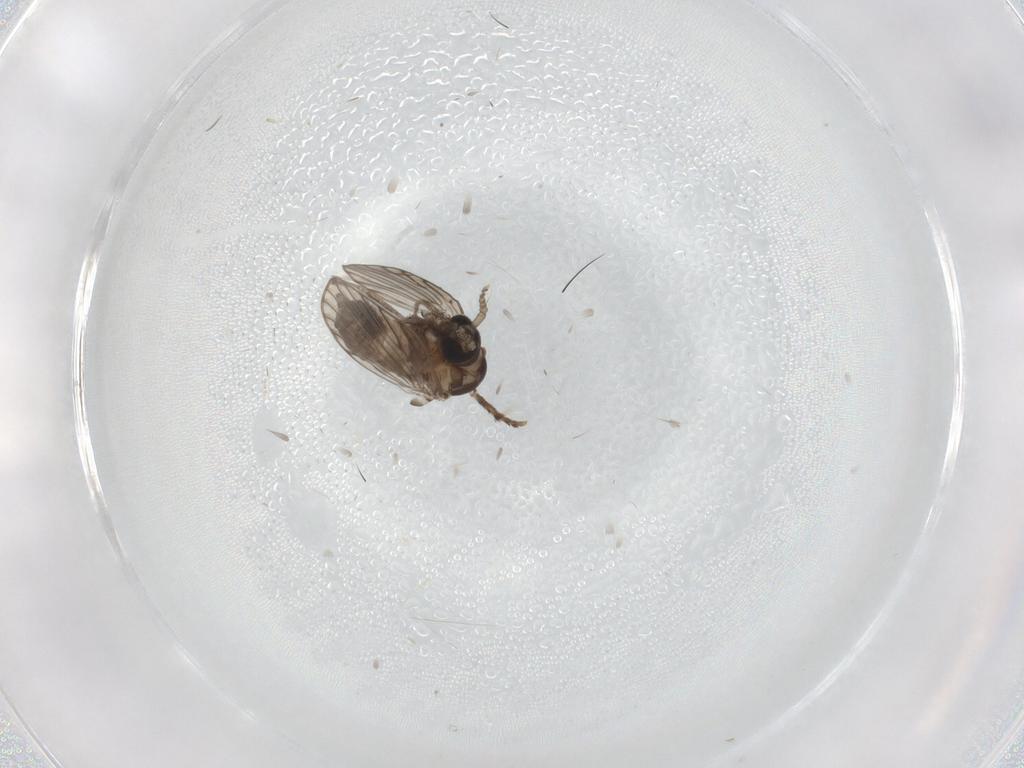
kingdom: Animalia
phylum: Arthropoda
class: Insecta
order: Diptera
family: Psychodidae
